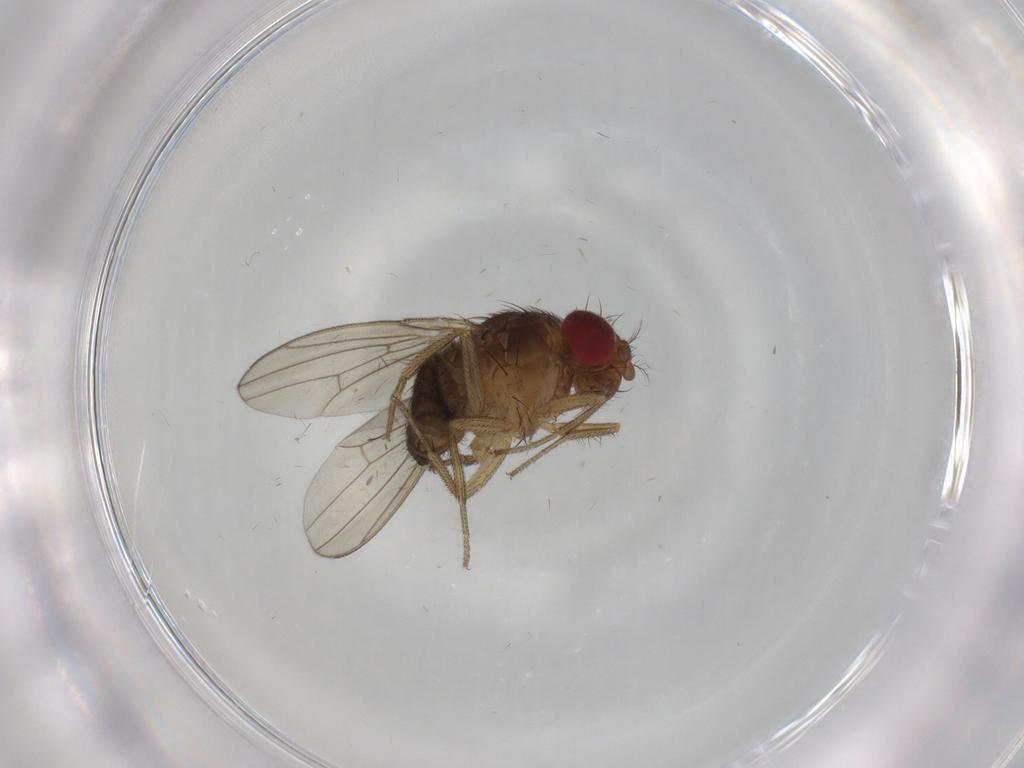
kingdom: Animalia
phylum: Arthropoda
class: Insecta
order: Diptera
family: Drosophilidae
